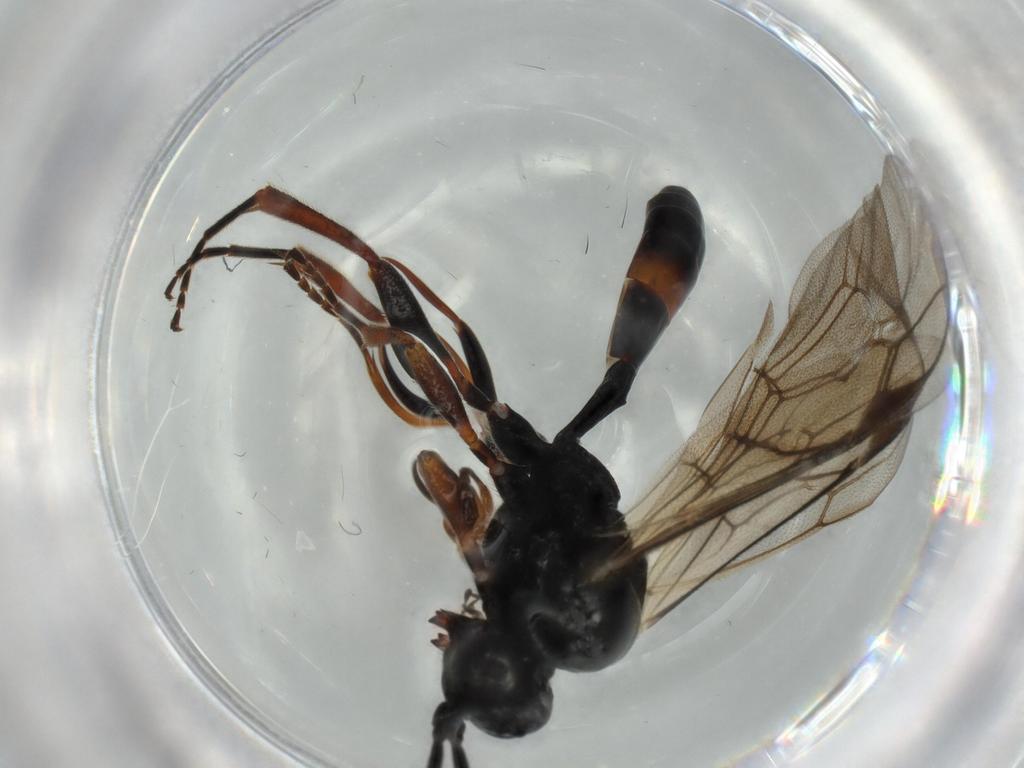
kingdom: Animalia
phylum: Arthropoda
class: Insecta
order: Hymenoptera
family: Ichneumonidae
